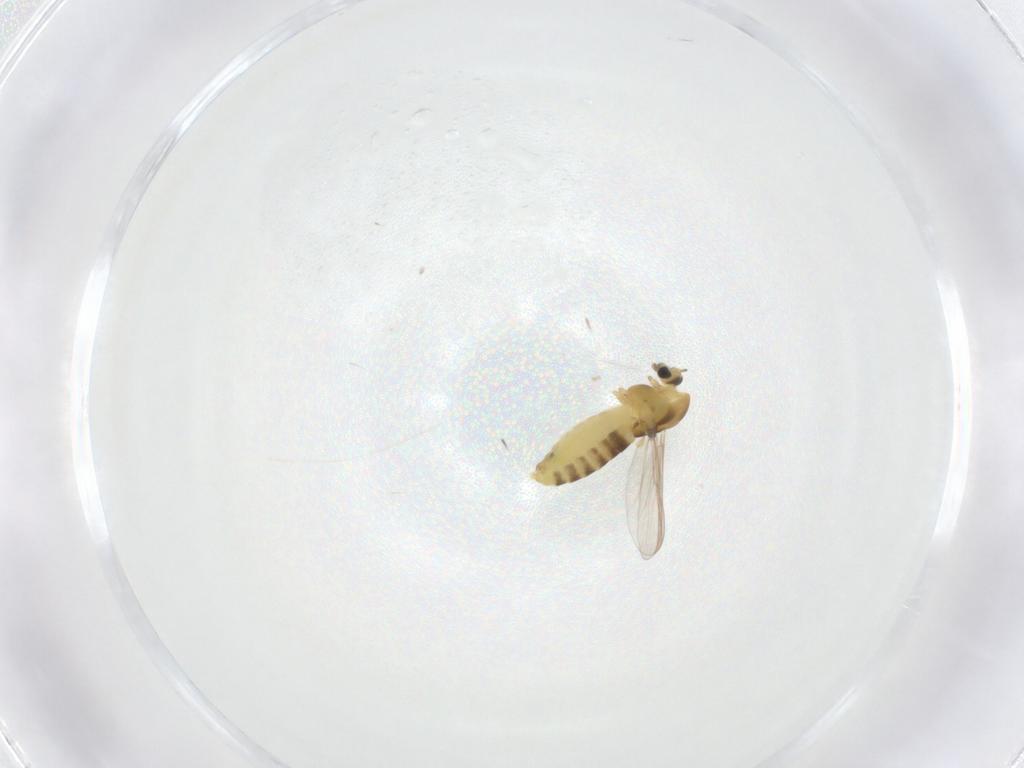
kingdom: Animalia
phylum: Arthropoda
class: Insecta
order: Diptera
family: Chironomidae
